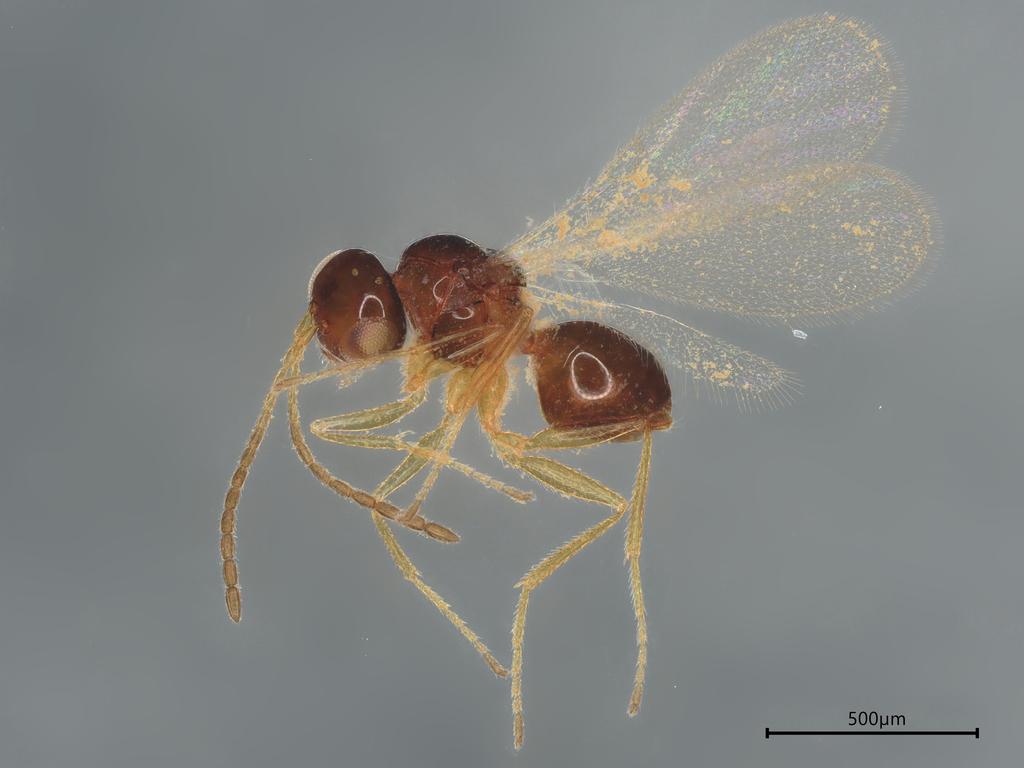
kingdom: Animalia
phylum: Arthropoda
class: Insecta
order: Hymenoptera
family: Figitidae
